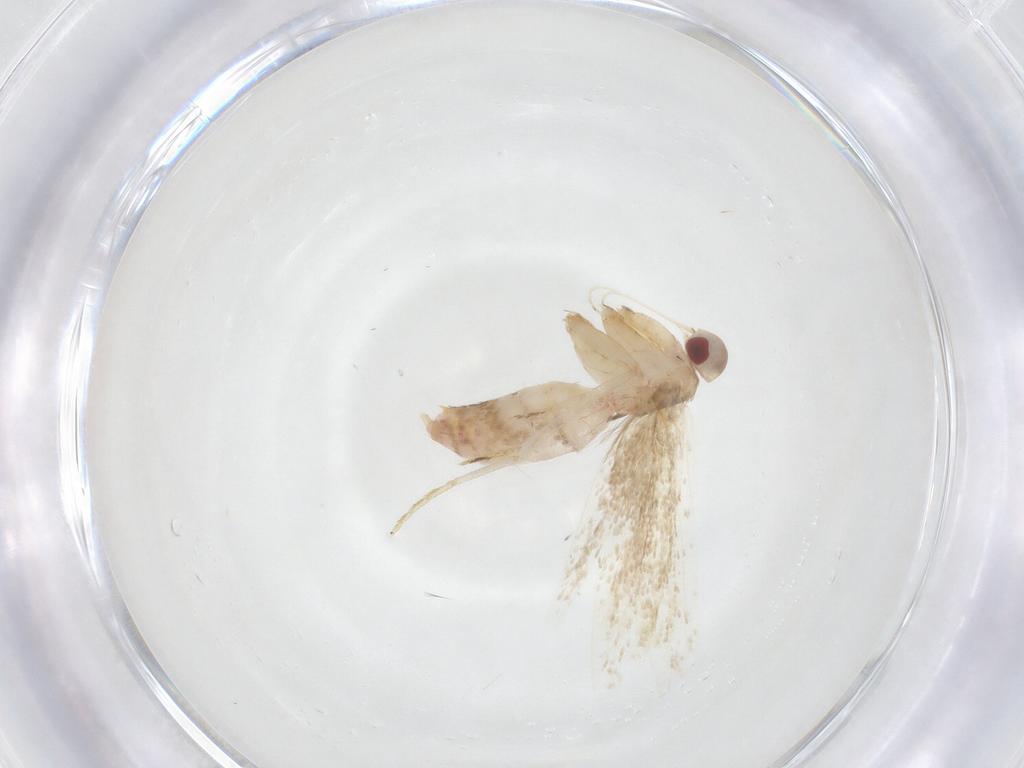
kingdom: Animalia
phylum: Arthropoda
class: Insecta
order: Lepidoptera
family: Cosmopterigidae
